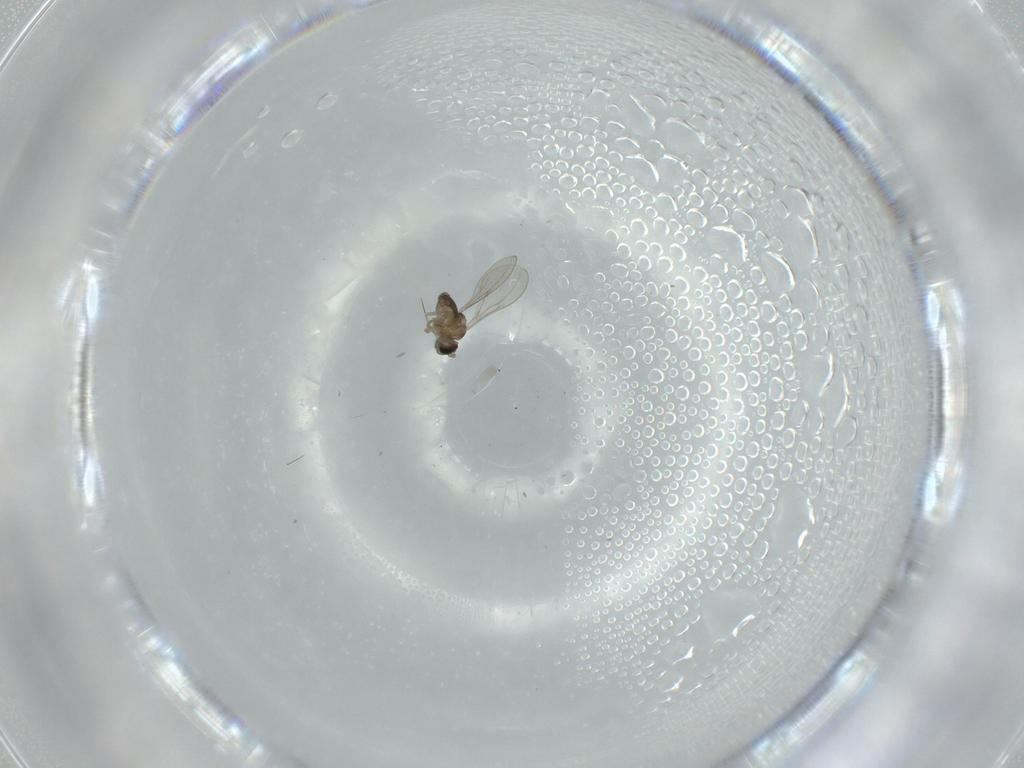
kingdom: Animalia
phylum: Arthropoda
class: Insecta
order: Diptera
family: Cecidomyiidae
